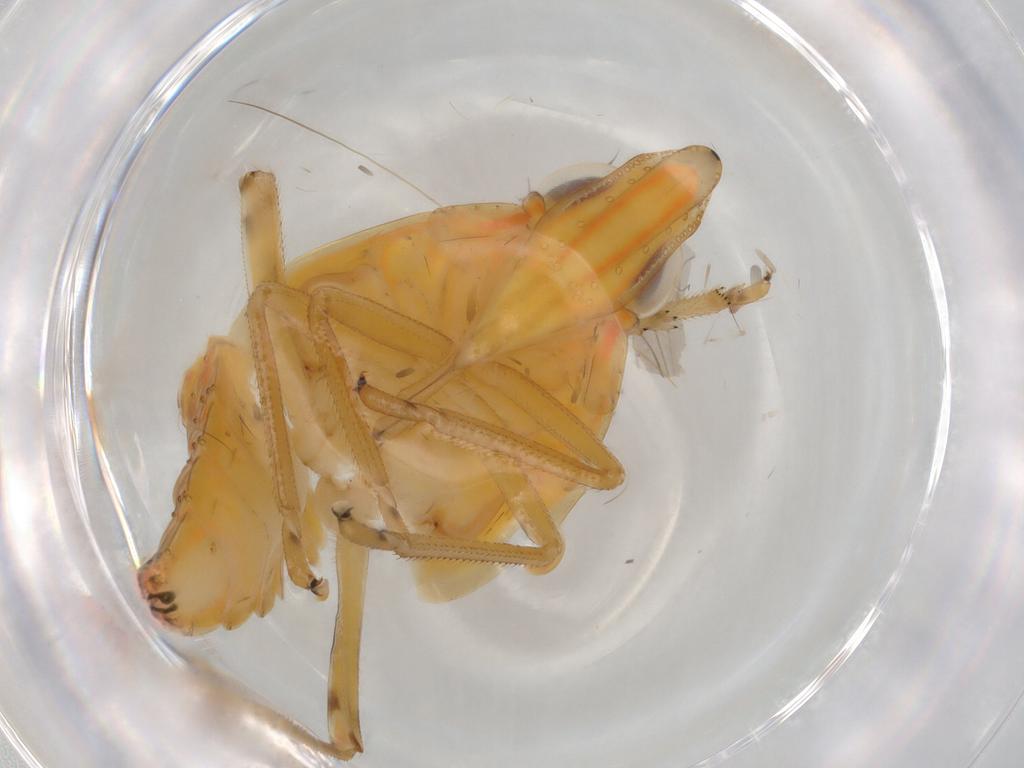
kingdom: Animalia
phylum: Arthropoda
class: Insecta
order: Hemiptera
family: Tropiduchidae
